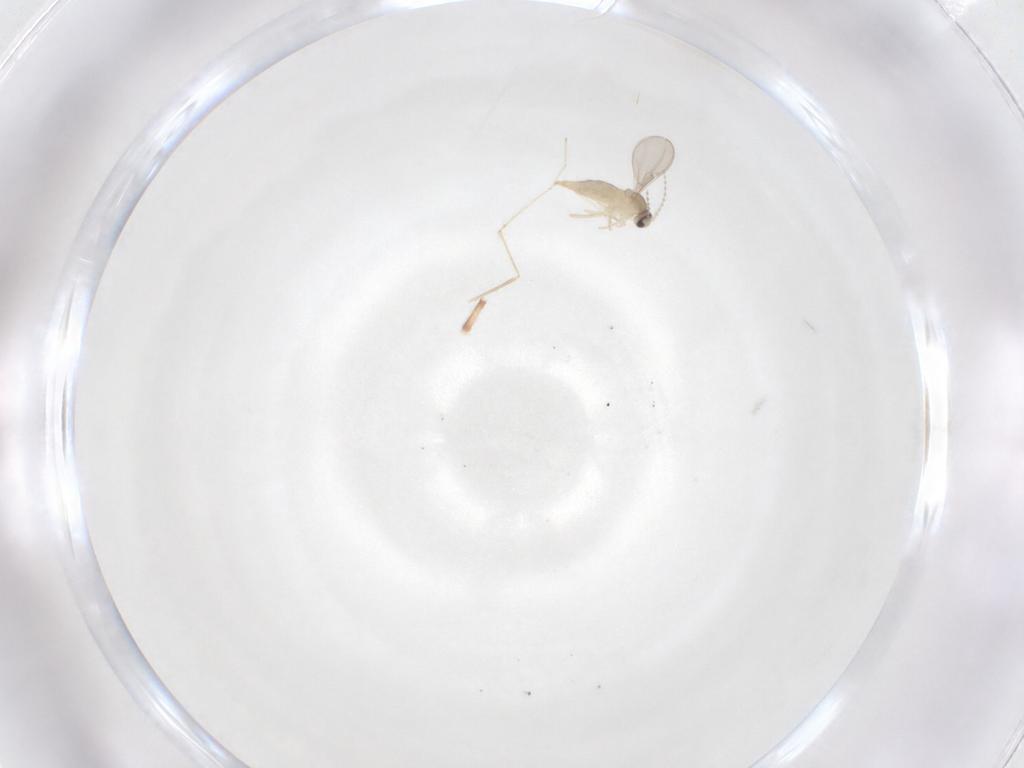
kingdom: Animalia
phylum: Arthropoda
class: Insecta
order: Diptera
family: Cecidomyiidae
